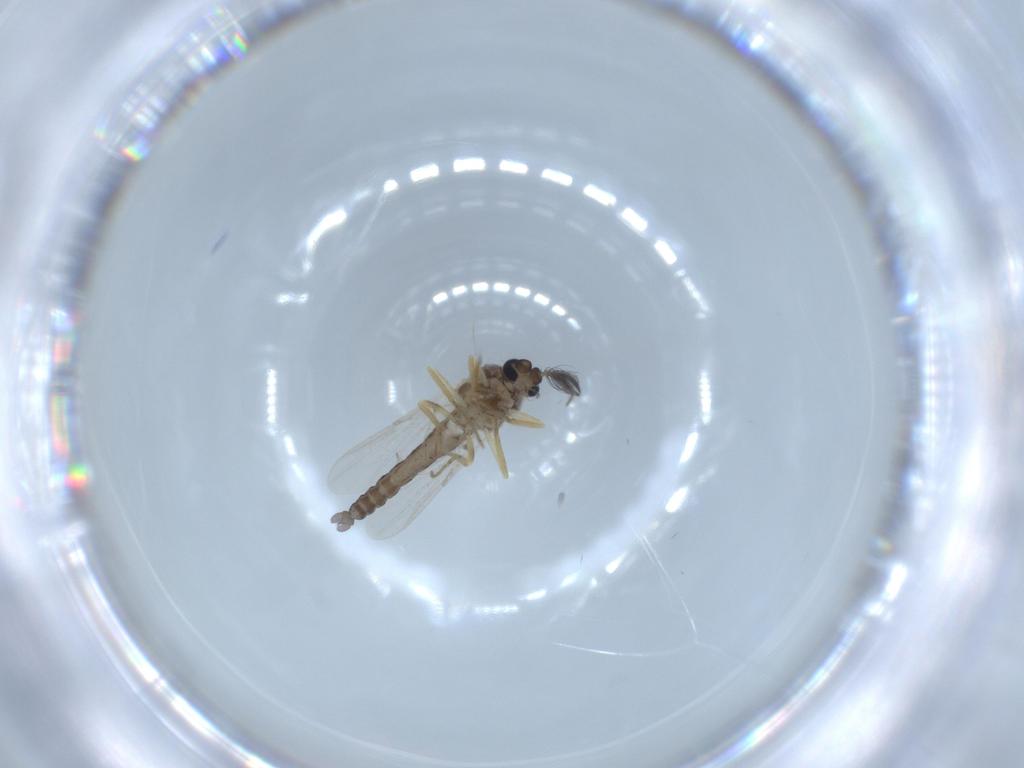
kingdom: Animalia
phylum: Arthropoda
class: Insecta
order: Diptera
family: Ceratopogonidae
